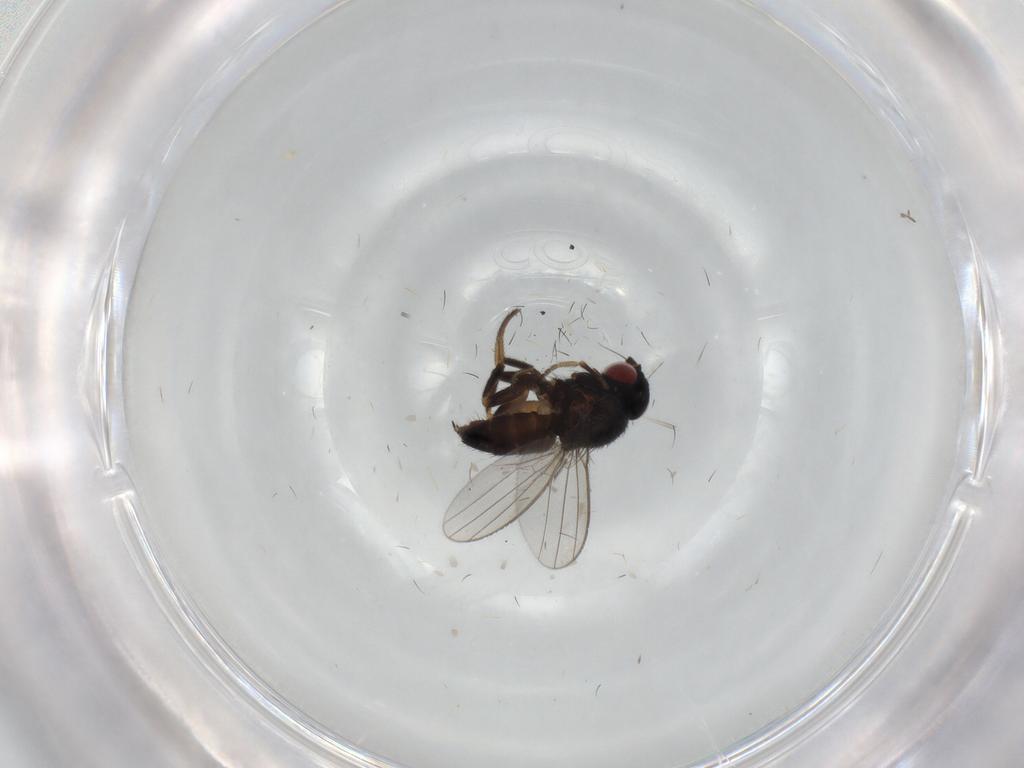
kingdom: Animalia
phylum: Arthropoda
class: Insecta
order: Diptera
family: Milichiidae
